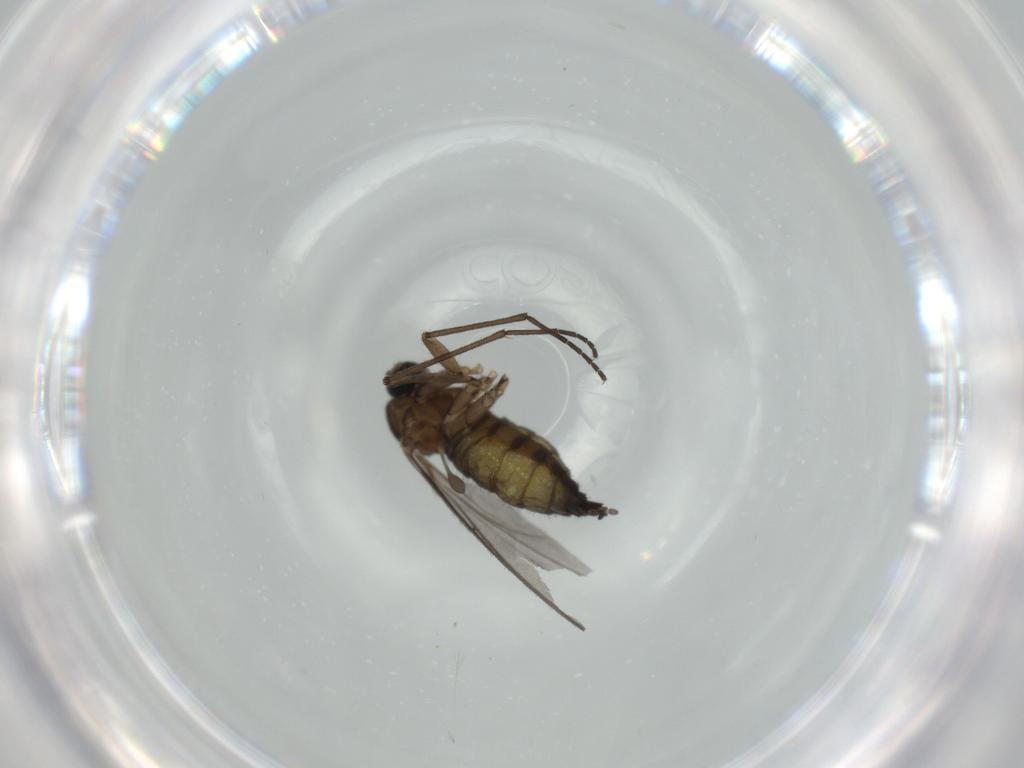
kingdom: Animalia
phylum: Arthropoda
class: Insecta
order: Diptera
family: Sciaridae
